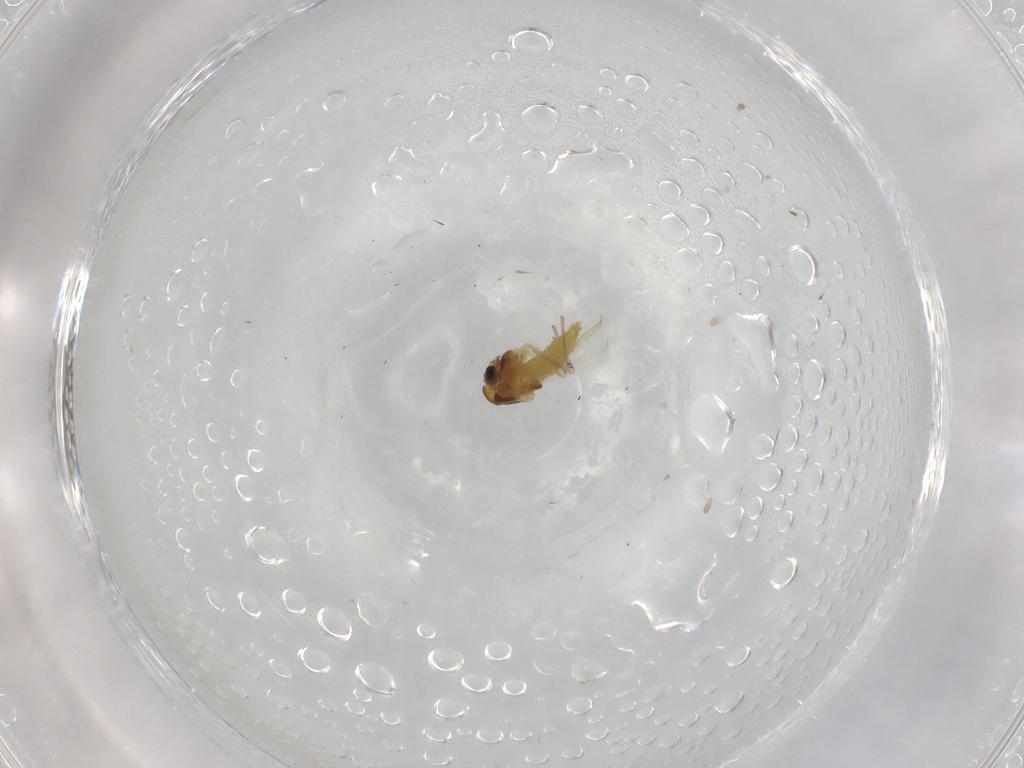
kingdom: Animalia
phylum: Arthropoda
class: Insecta
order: Diptera
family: Chironomidae
